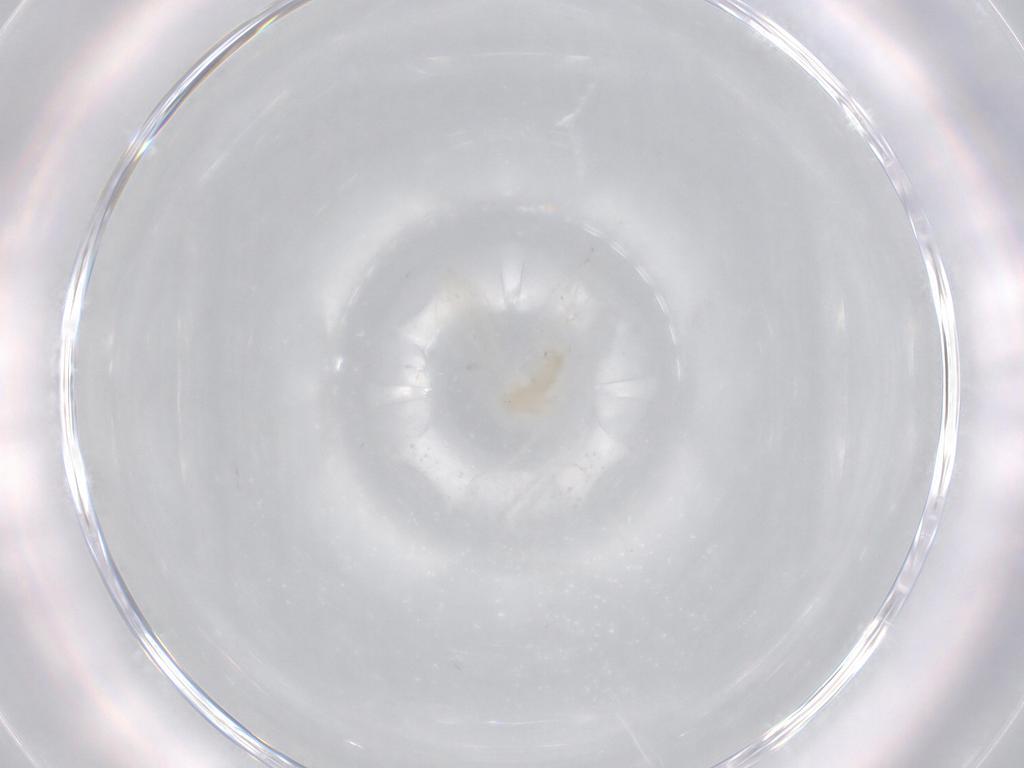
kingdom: Animalia
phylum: Arthropoda
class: Insecta
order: Diptera
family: Cecidomyiidae
